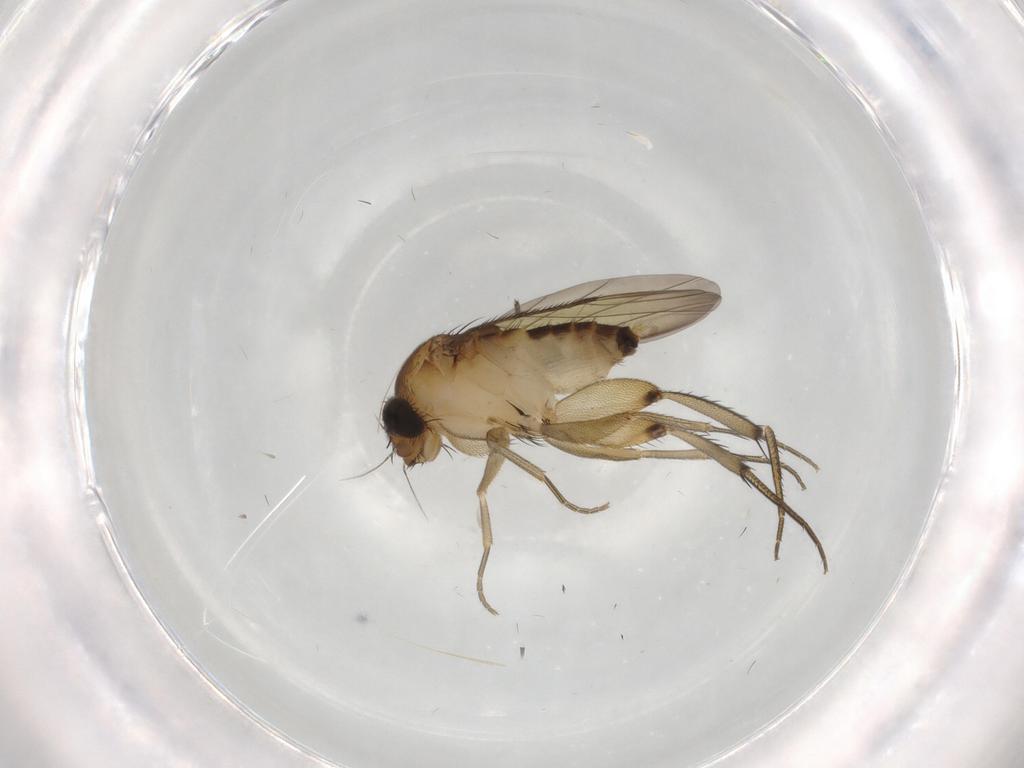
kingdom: Animalia
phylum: Arthropoda
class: Insecta
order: Diptera
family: Phoridae
